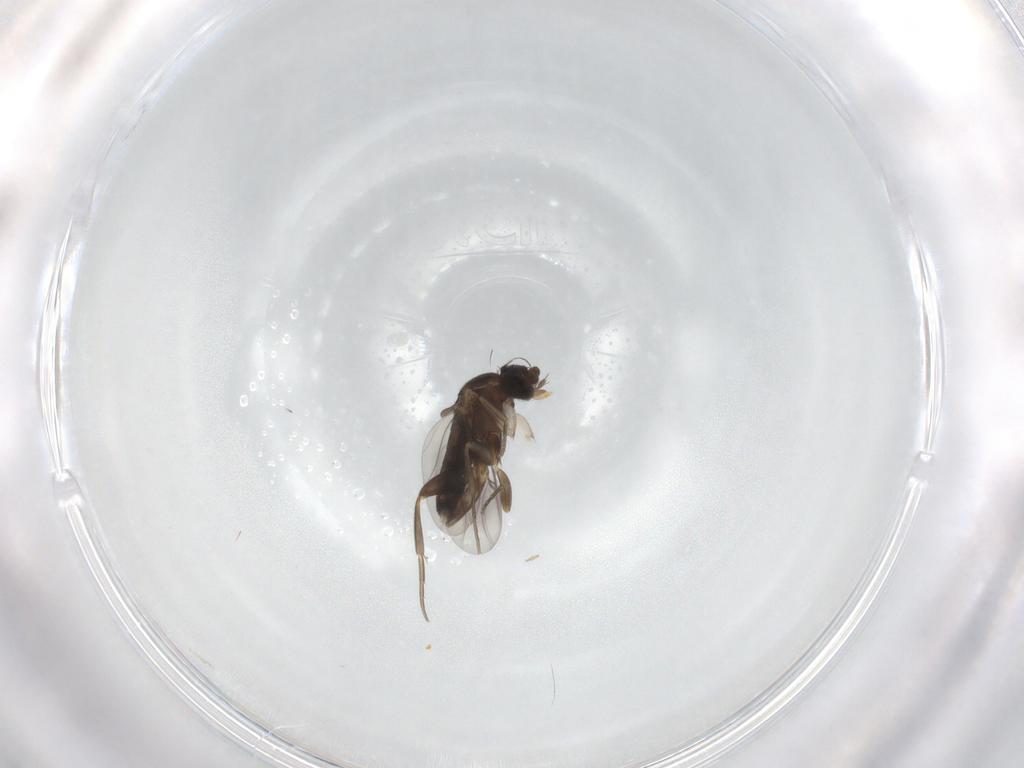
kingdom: Animalia
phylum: Arthropoda
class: Insecta
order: Diptera
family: Phoridae
